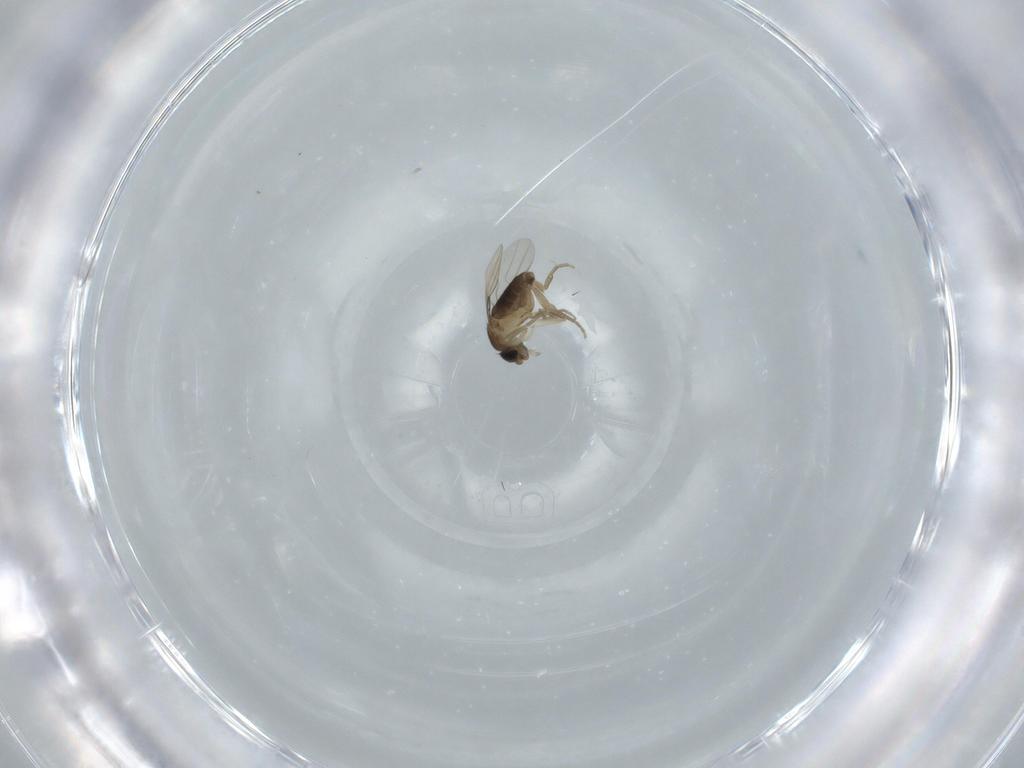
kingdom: Animalia
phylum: Arthropoda
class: Insecta
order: Diptera
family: Phoridae
